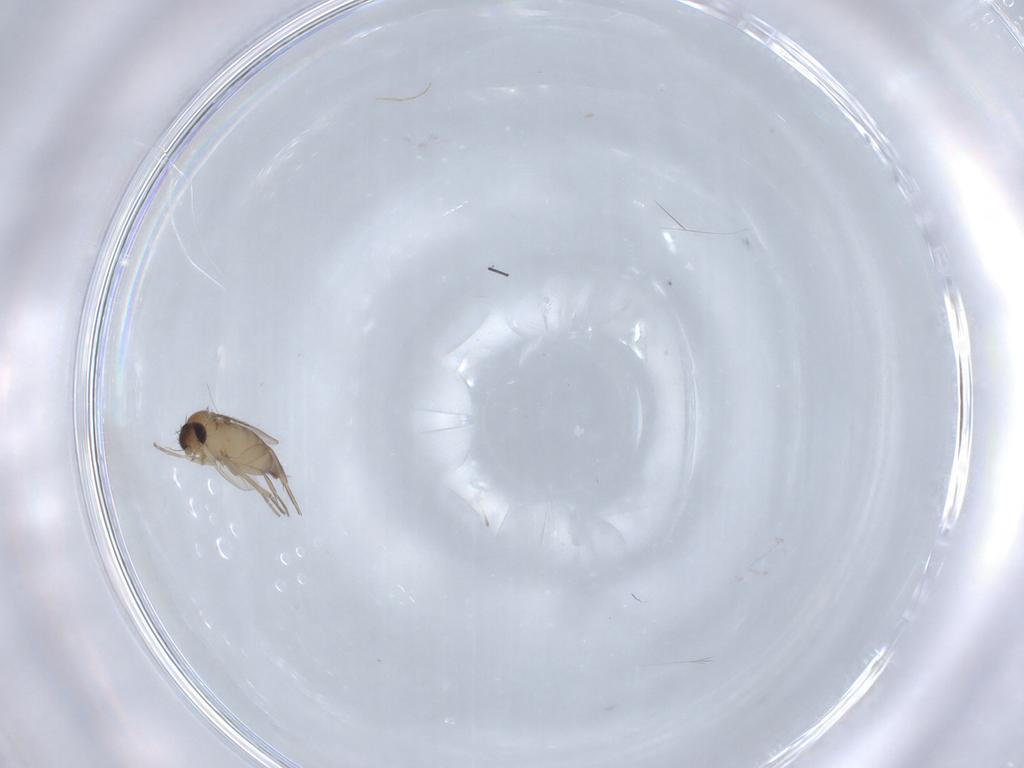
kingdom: Animalia
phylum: Arthropoda
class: Insecta
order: Diptera
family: Phoridae
